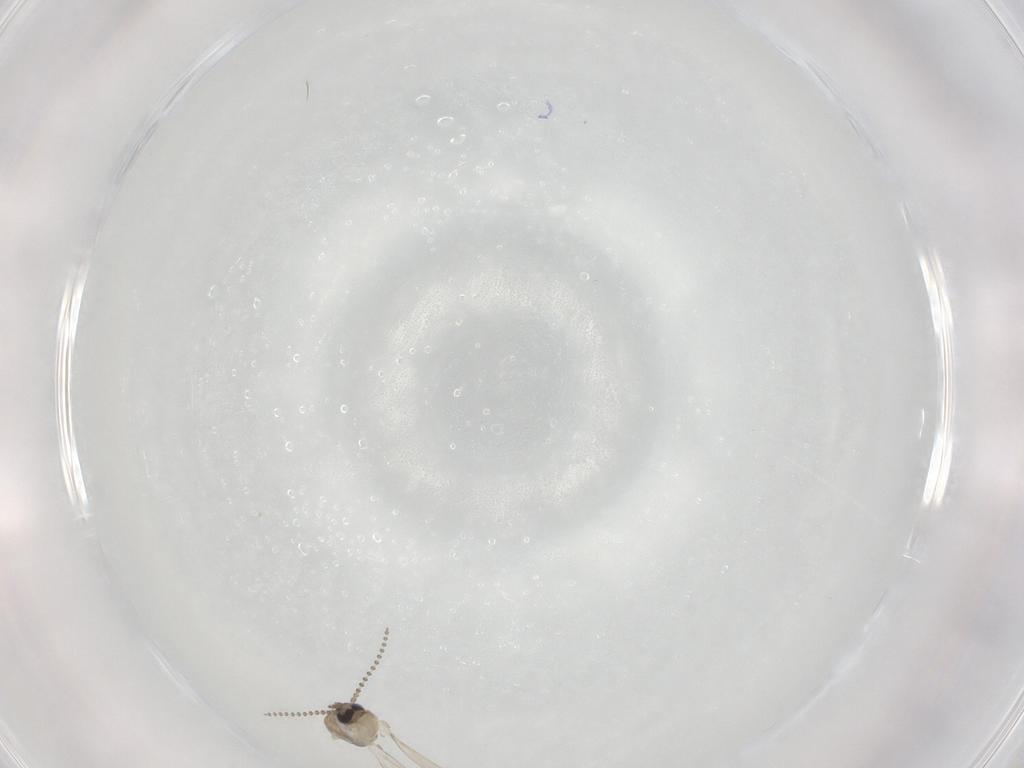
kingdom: Animalia
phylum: Arthropoda
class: Insecta
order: Diptera
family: Psychodidae
